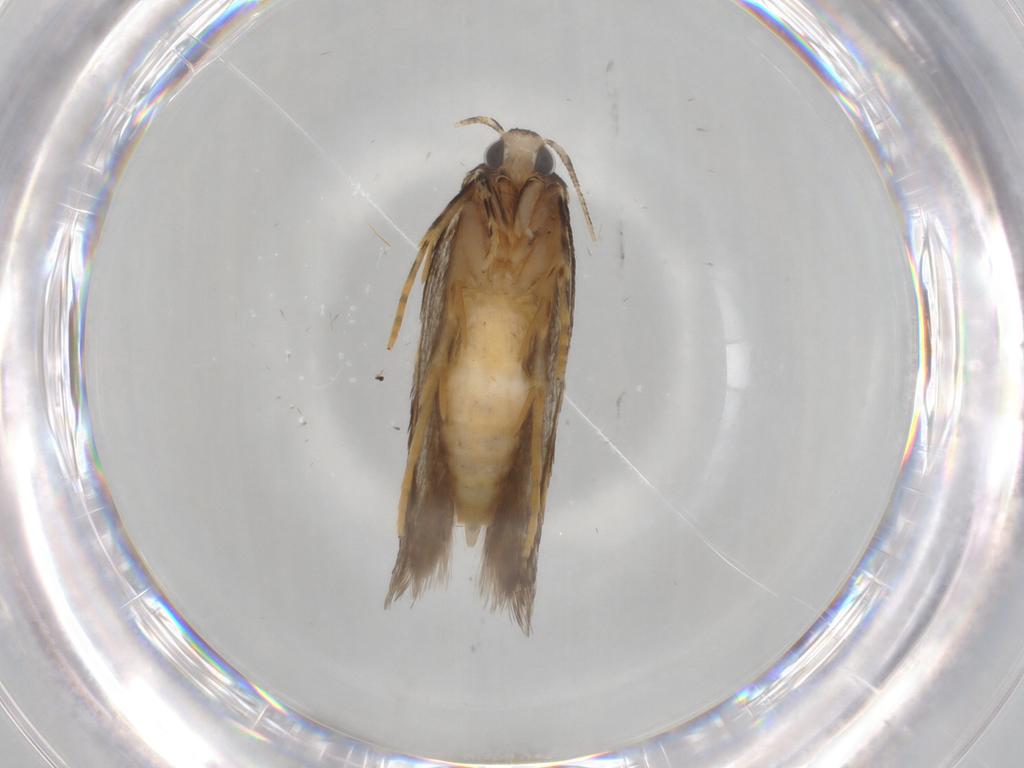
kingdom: Animalia
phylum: Arthropoda
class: Insecta
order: Lepidoptera
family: Autostichidae
